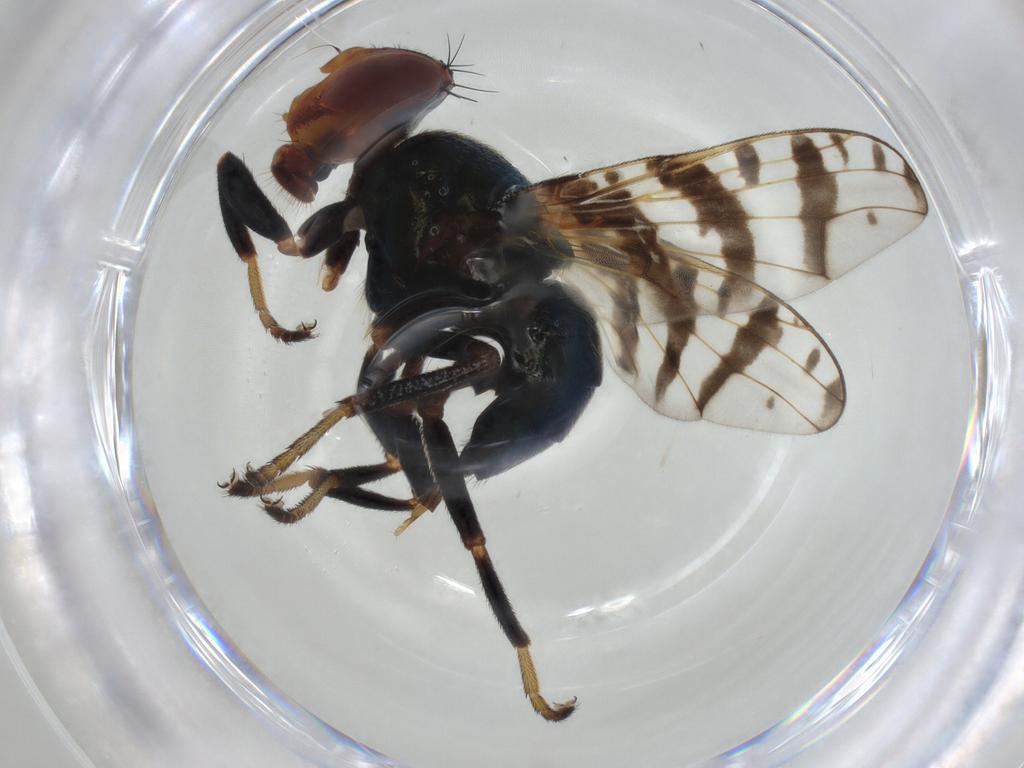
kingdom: Animalia
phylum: Arthropoda
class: Insecta
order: Diptera
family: Platystomatidae
